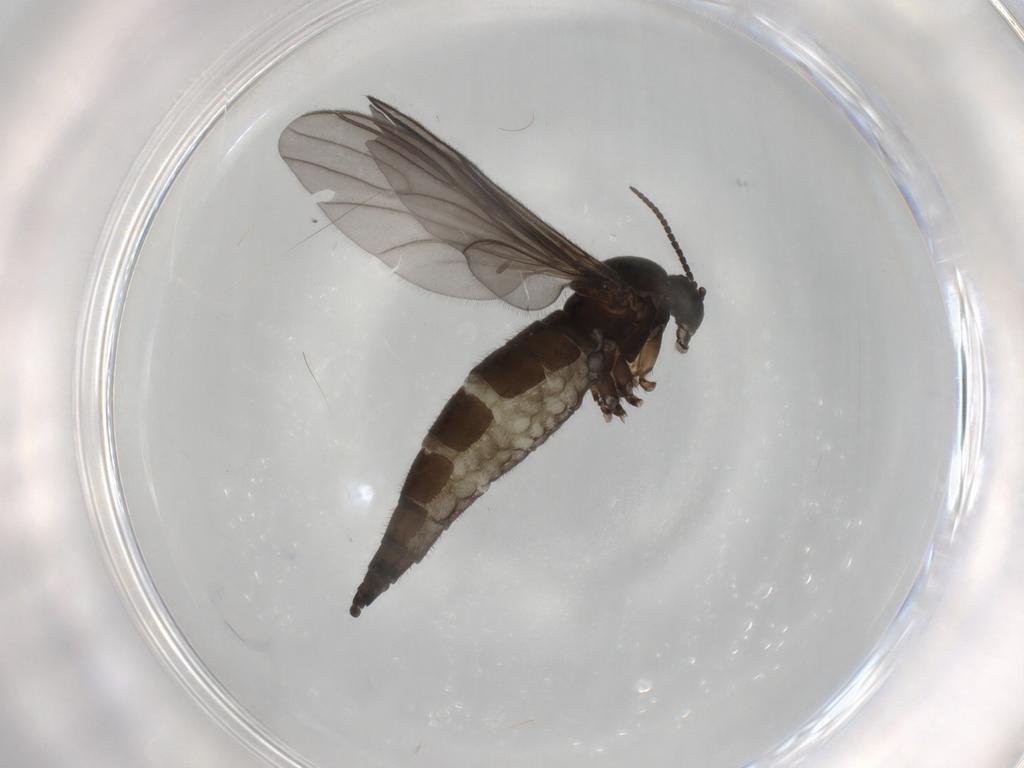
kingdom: Animalia
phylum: Arthropoda
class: Insecta
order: Diptera
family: Sciaridae
